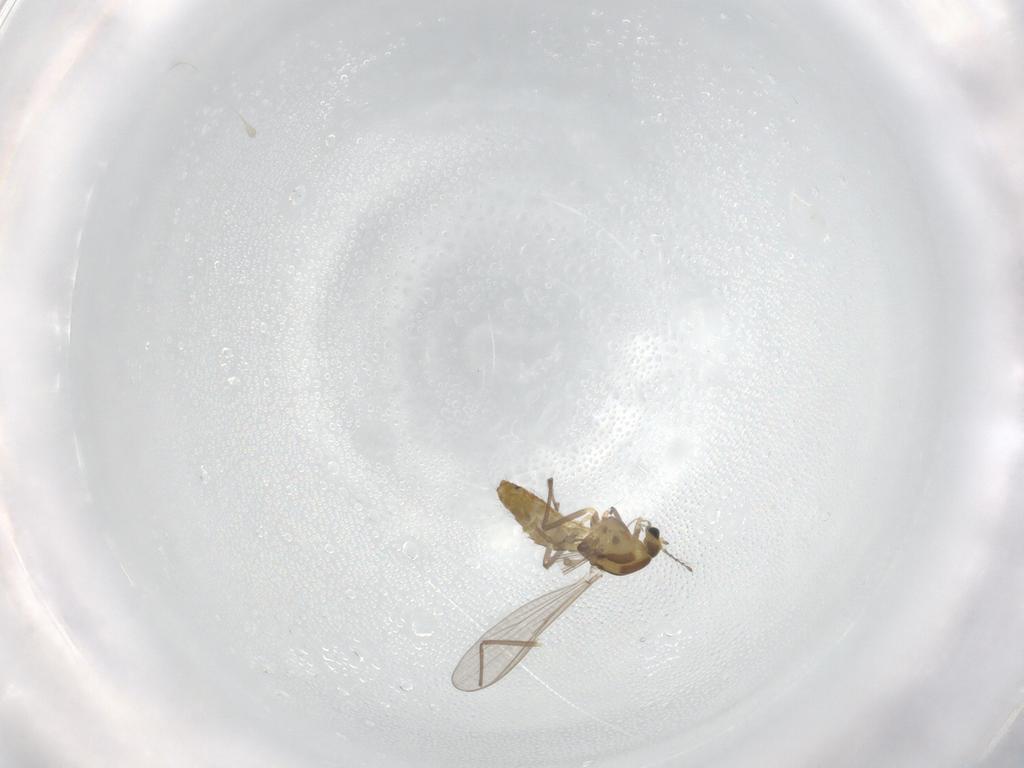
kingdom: Animalia
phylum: Arthropoda
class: Insecta
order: Diptera
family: Chironomidae
